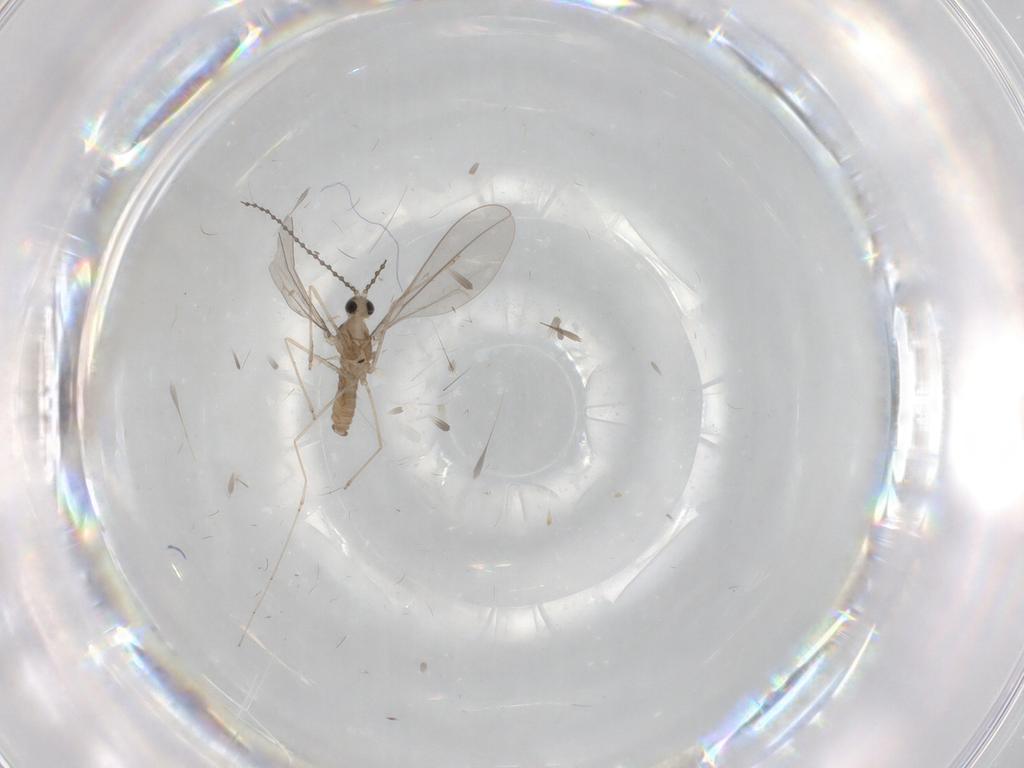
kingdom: Animalia
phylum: Arthropoda
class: Insecta
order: Diptera
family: Cecidomyiidae
